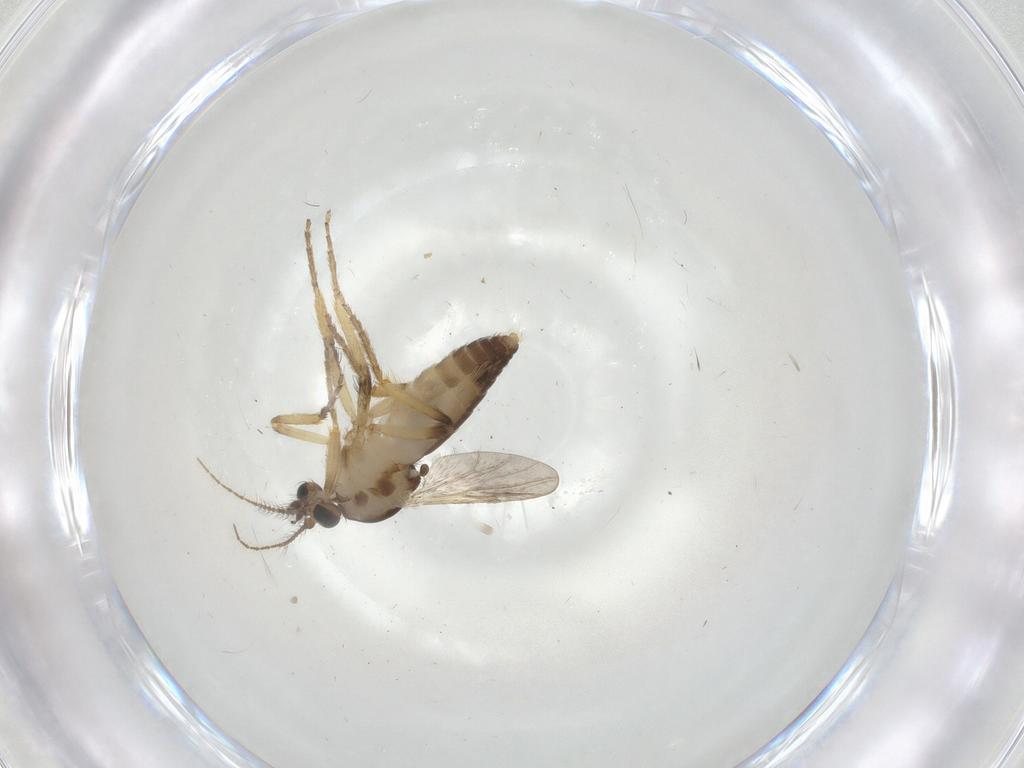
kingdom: Animalia
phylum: Arthropoda
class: Insecta
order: Diptera
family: Ceratopogonidae
